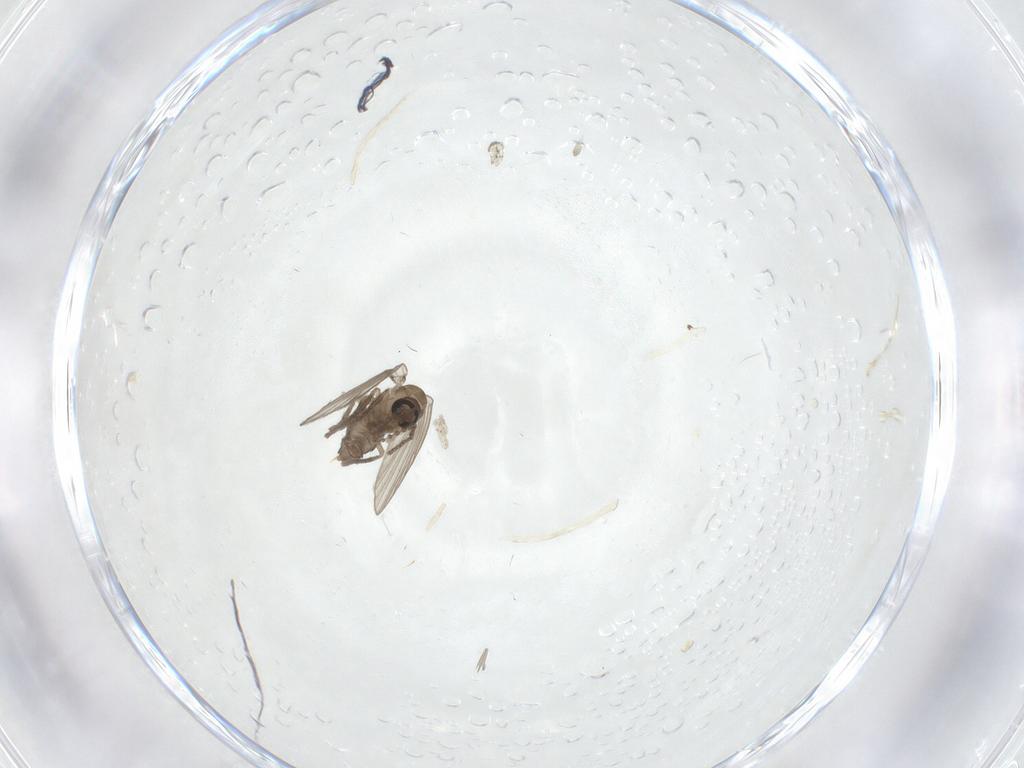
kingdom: Animalia
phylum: Arthropoda
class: Insecta
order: Diptera
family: Psychodidae
